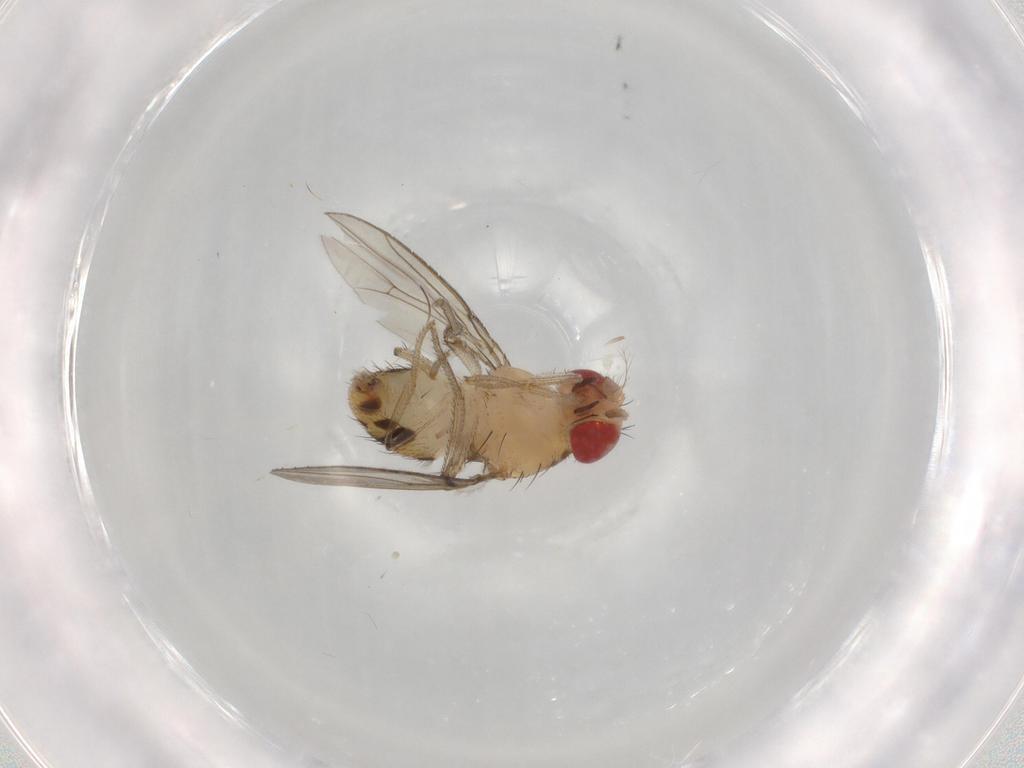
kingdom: Animalia
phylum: Arthropoda
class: Insecta
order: Diptera
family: Drosophilidae
